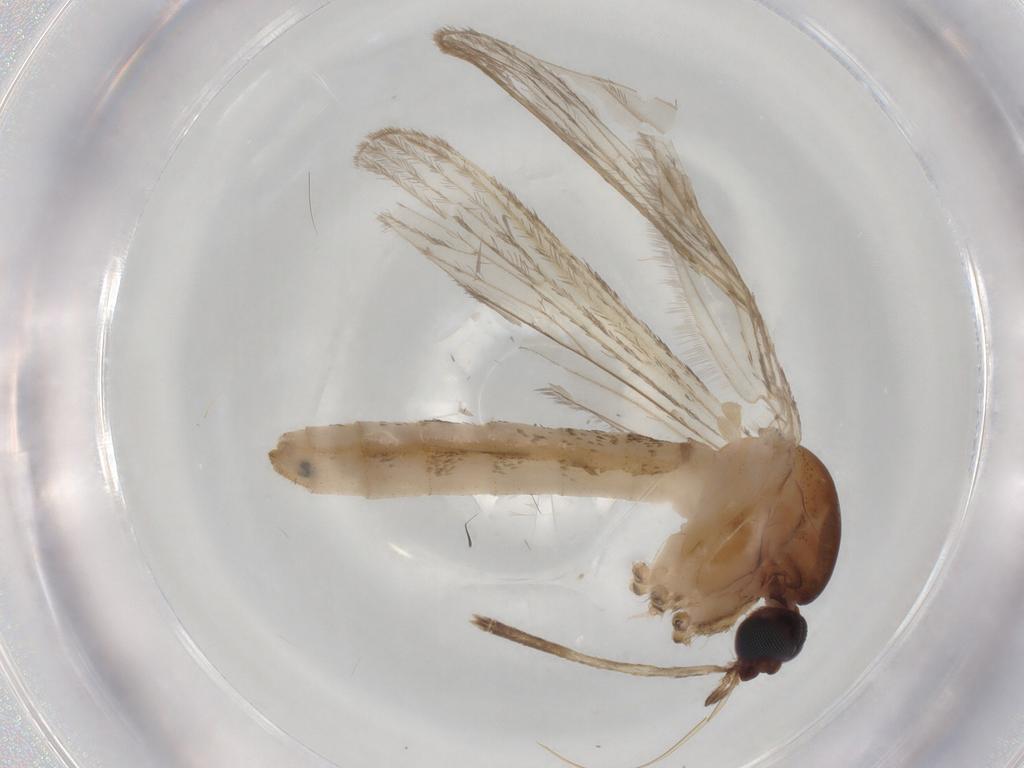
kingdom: Animalia
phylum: Arthropoda
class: Insecta
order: Diptera
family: Culicidae
